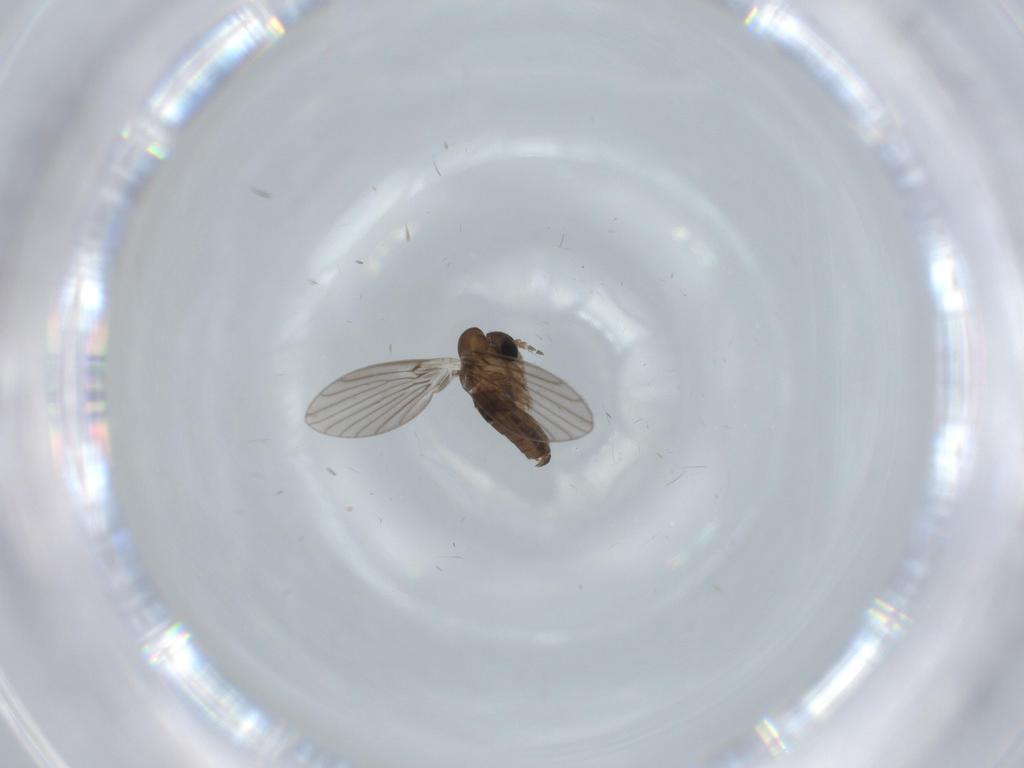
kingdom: Animalia
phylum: Arthropoda
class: Insecta
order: Diptera
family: Psychodidae
